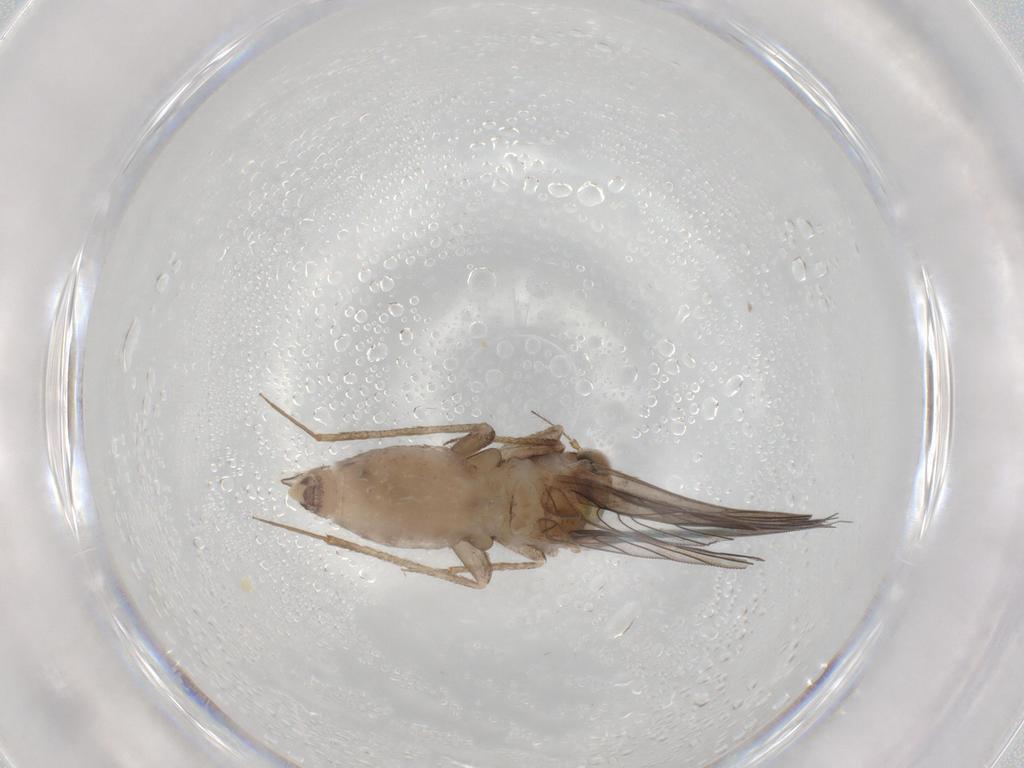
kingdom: Animalia
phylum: Arthropoda
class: Insecta
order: Psocodea
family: Lepidopsocidae
